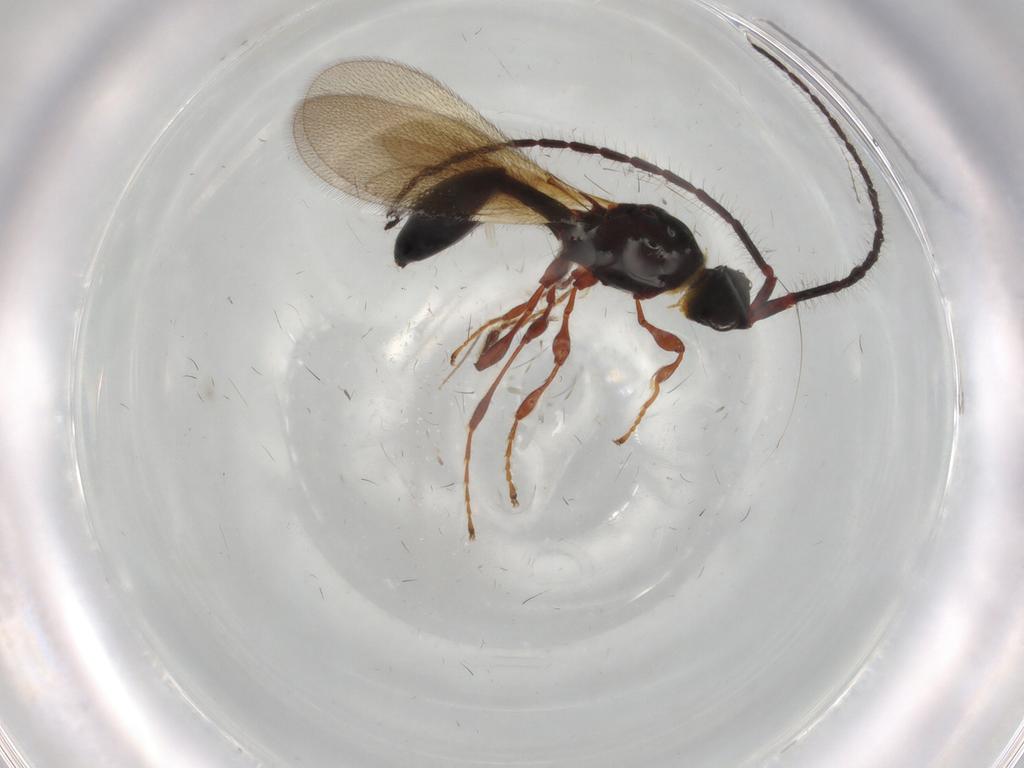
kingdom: Animalia
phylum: Arthropoda
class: Insecta
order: Hymenoptera
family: Diapriidae
